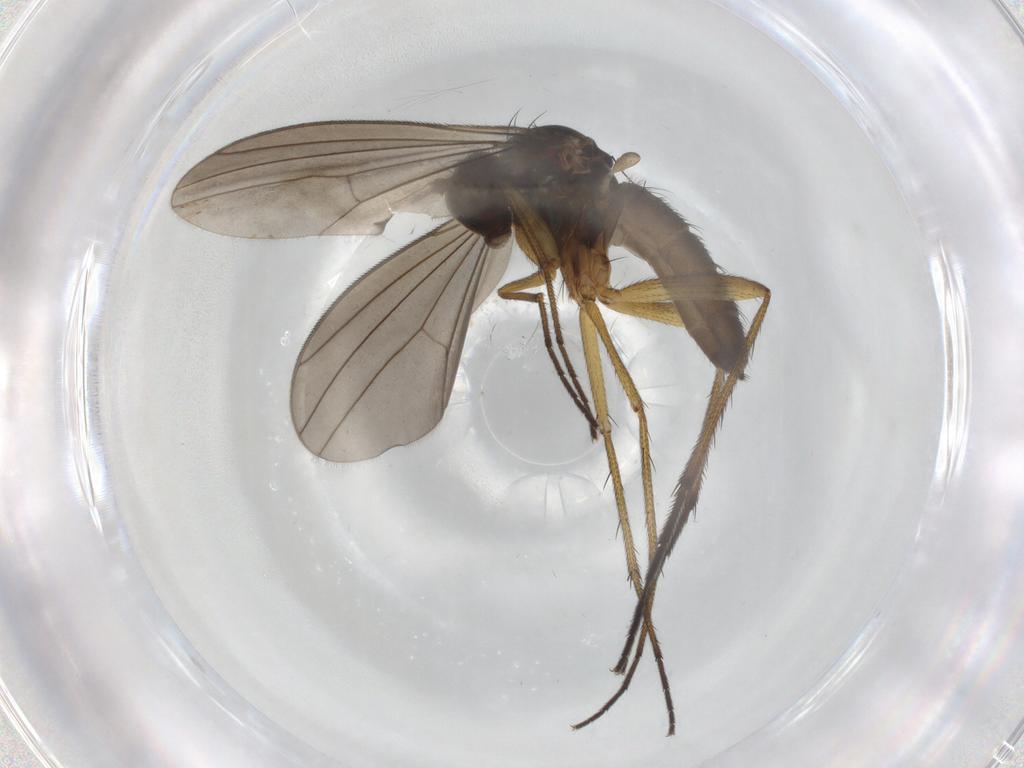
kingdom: Animalia
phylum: Arthropoda
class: Insecta
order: Diptera
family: Dolichopodidae
